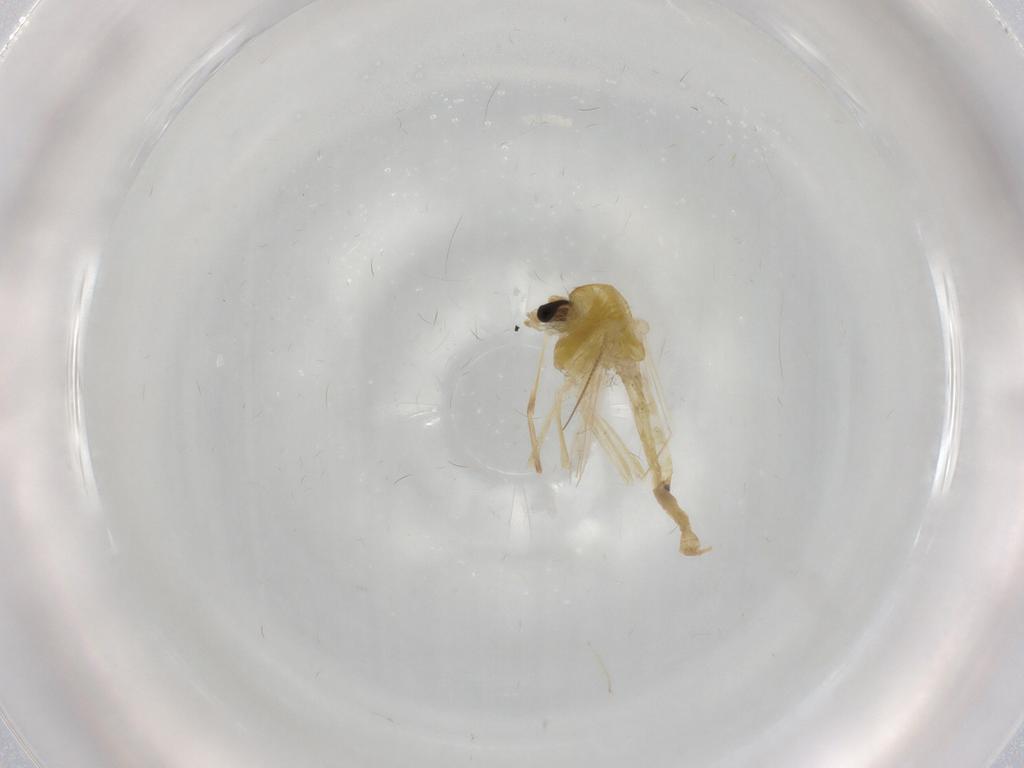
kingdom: Animalia
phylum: Arthropoda
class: Insecta
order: Diptera
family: Chironomidae
